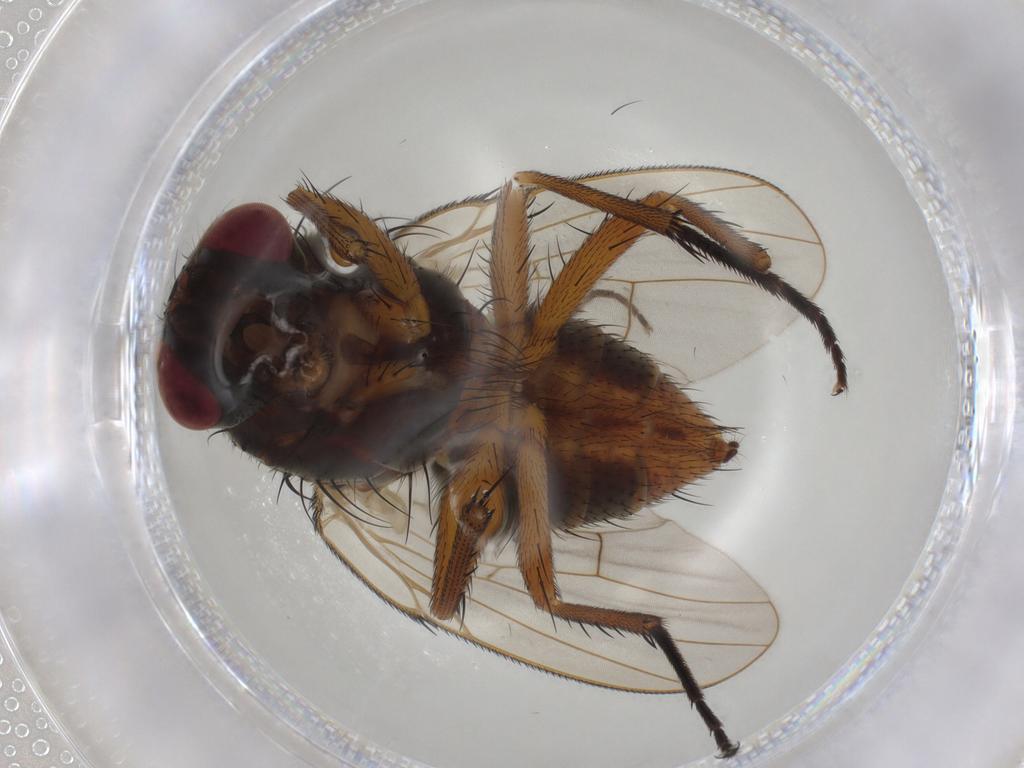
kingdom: Animalia
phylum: Arthropoda
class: Insecta
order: Diptera
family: Muscidae
